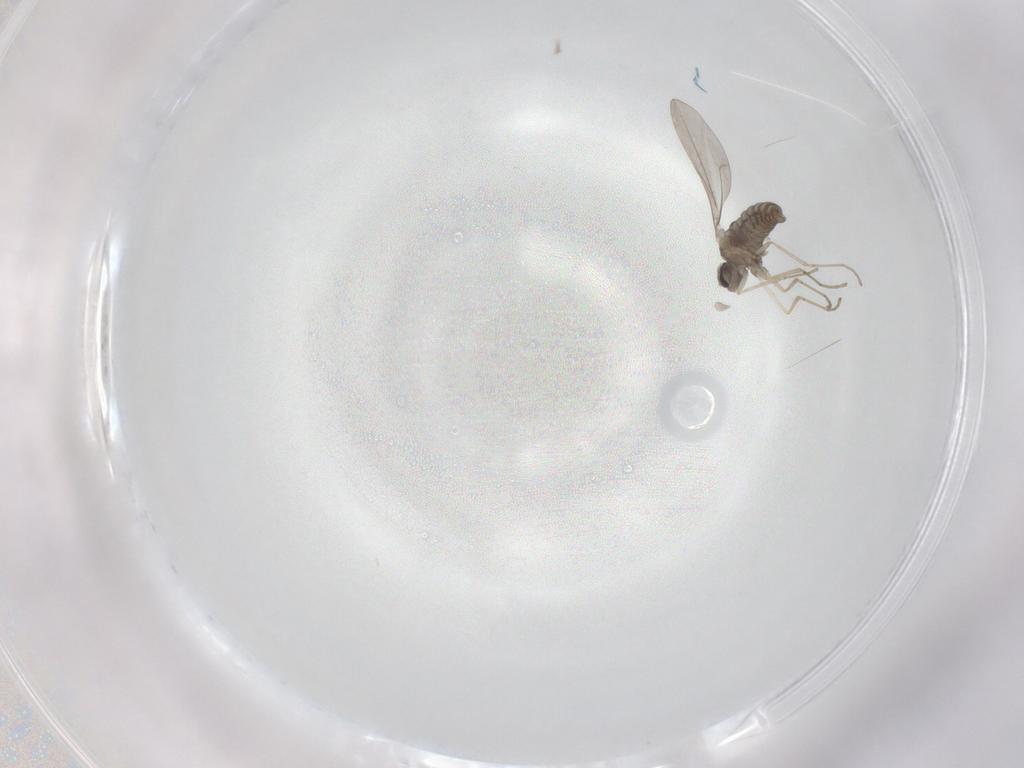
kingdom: Animalia
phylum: Arthropoda
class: Insecta
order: Diptera
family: Cecidomyiidae
